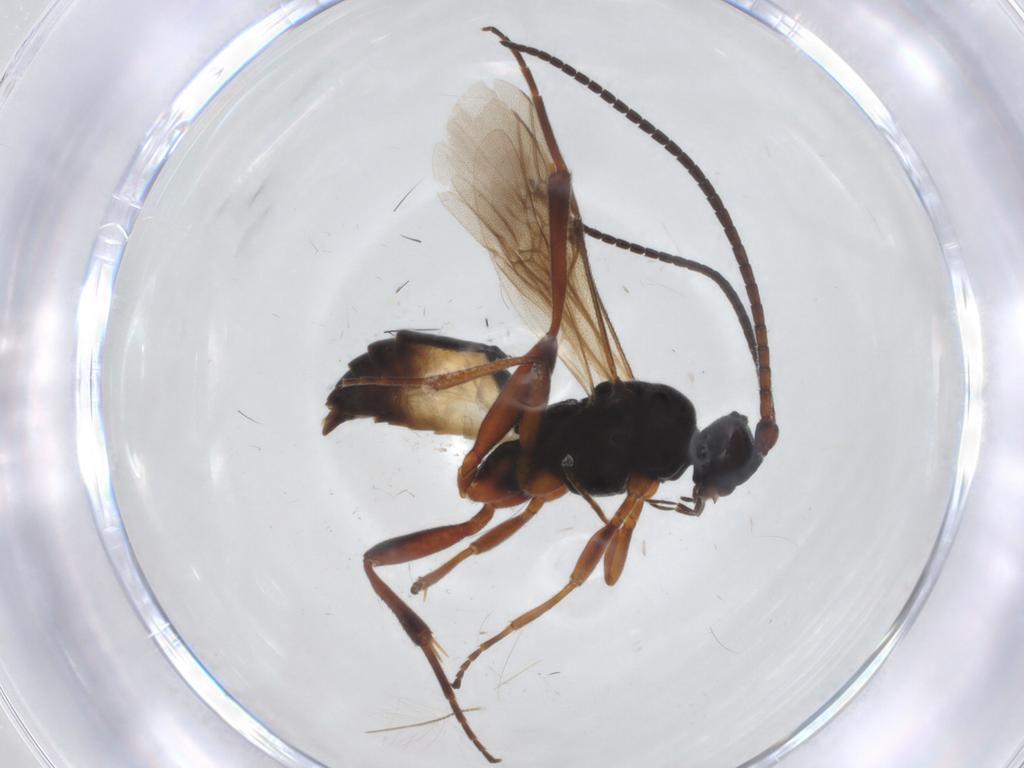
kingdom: Animalia
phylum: Arthropoda
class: Insecta
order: Hymenoptera
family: Braconidae
